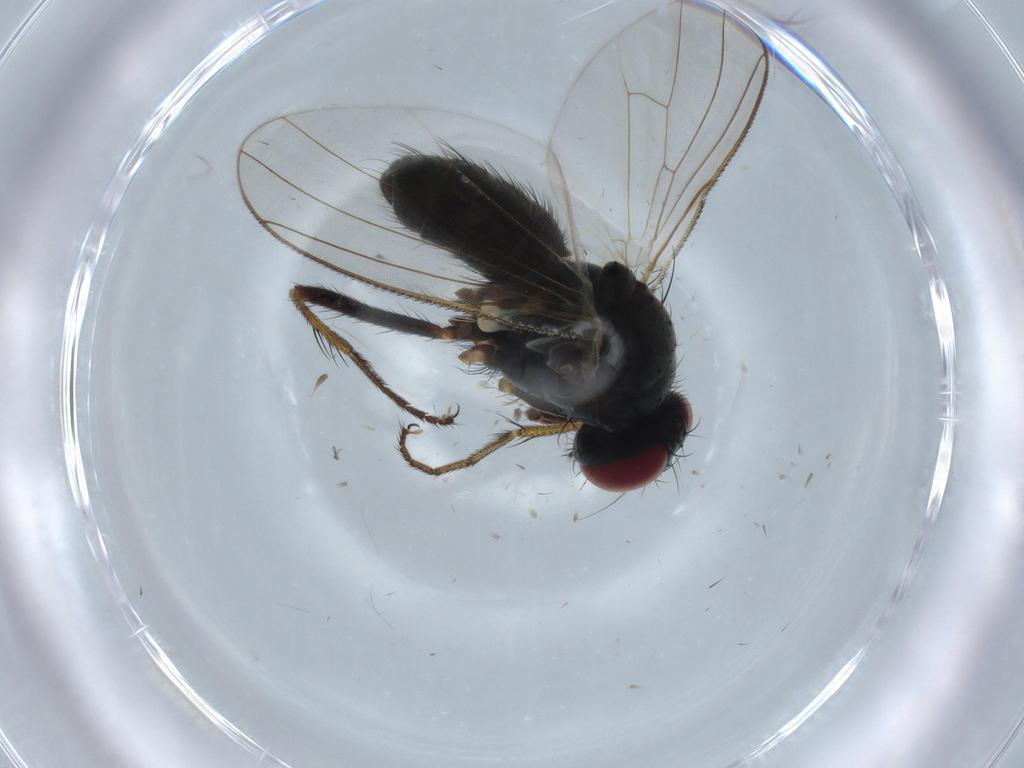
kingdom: Animalia
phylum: Arthropoda
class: Insecta
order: Diptera
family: Muscidae
